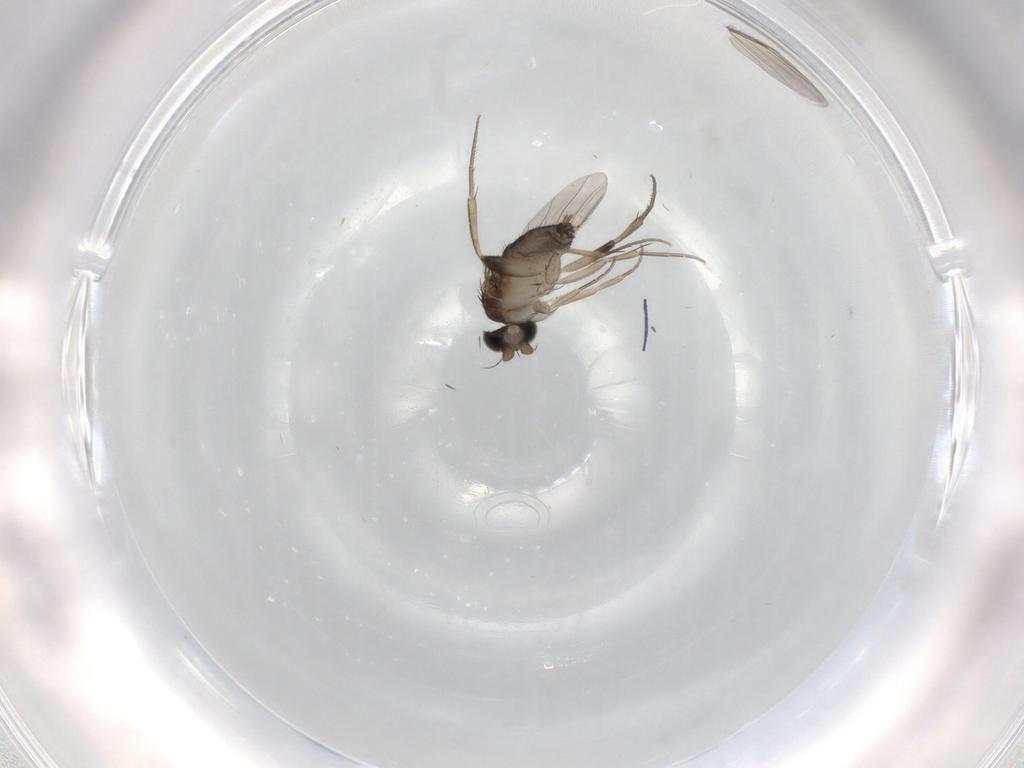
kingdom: Animalia
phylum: Arthropoda
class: Insecta
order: Diptera
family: Phoridae
